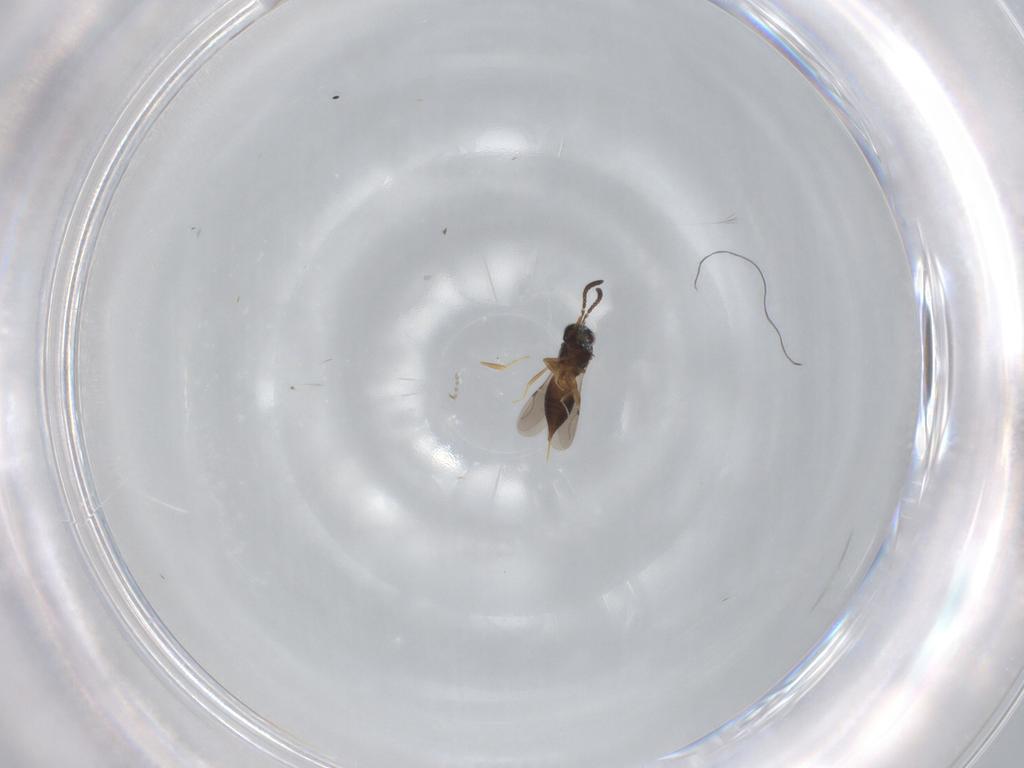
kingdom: Animalia
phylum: Arthropoda
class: Insecta
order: Hymenoptera
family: Ceraphronidae
